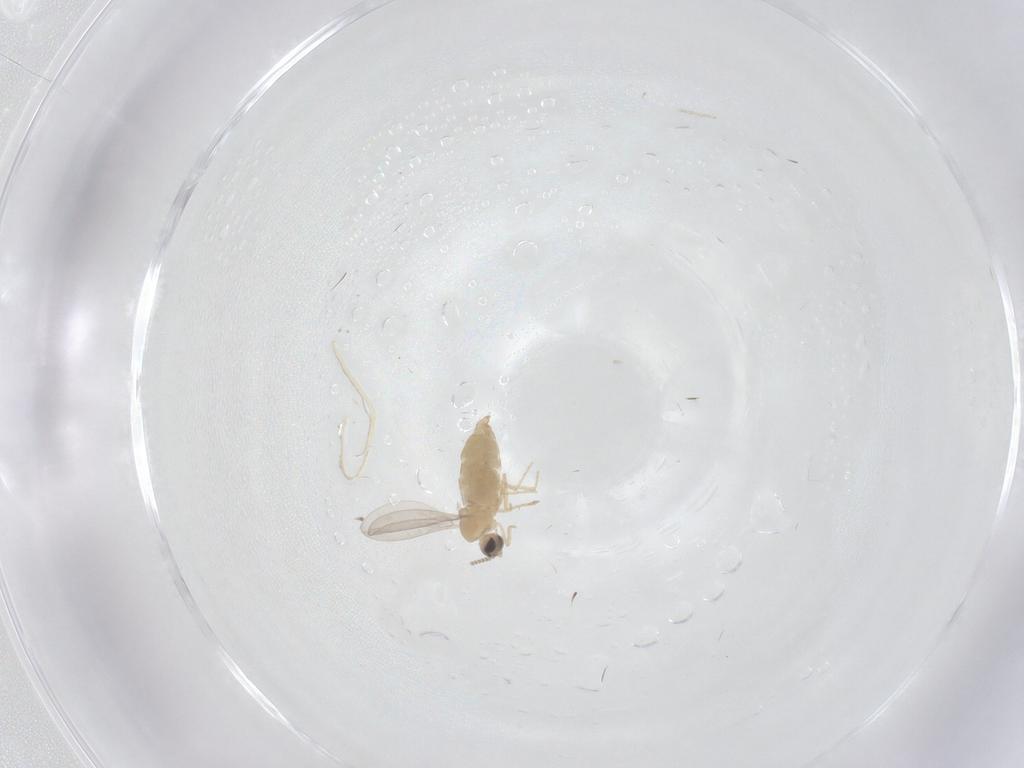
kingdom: Animalia
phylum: Arthropoda
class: Insecta
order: Diptera
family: Cecidomyiidae
